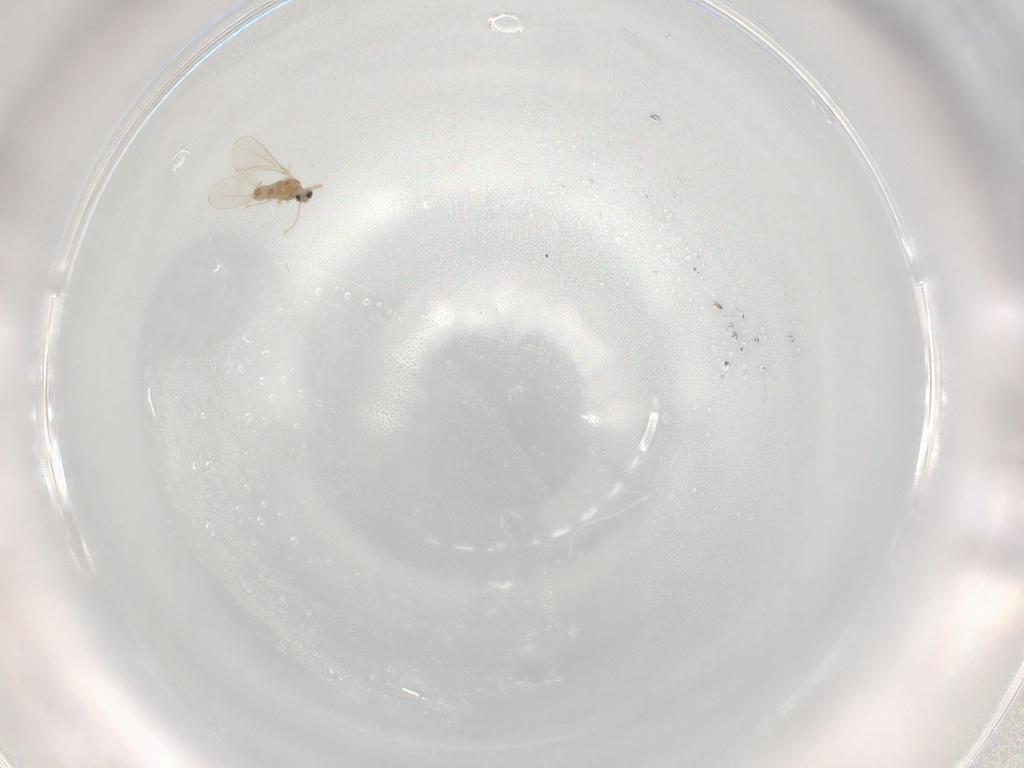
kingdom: Animalia
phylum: Arthropoda
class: Insecta
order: Diptera
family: Cecidomyiidae
